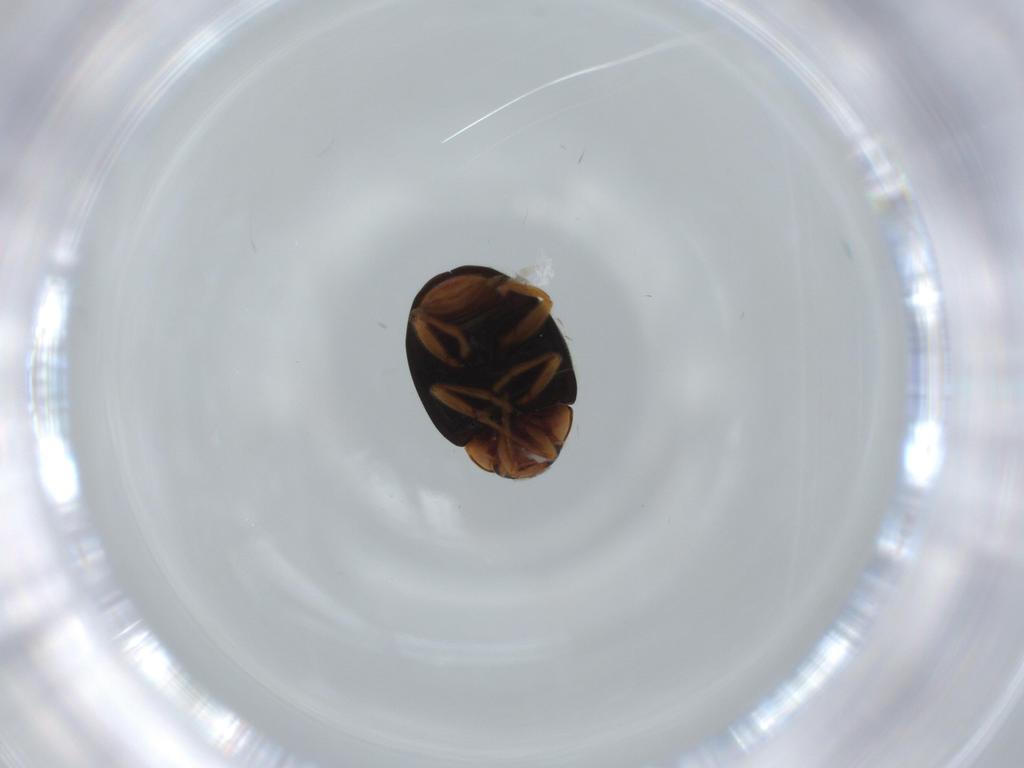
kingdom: Animalia
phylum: Arthropoda
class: Insecta
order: Coleoptera
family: Coccinellidae
